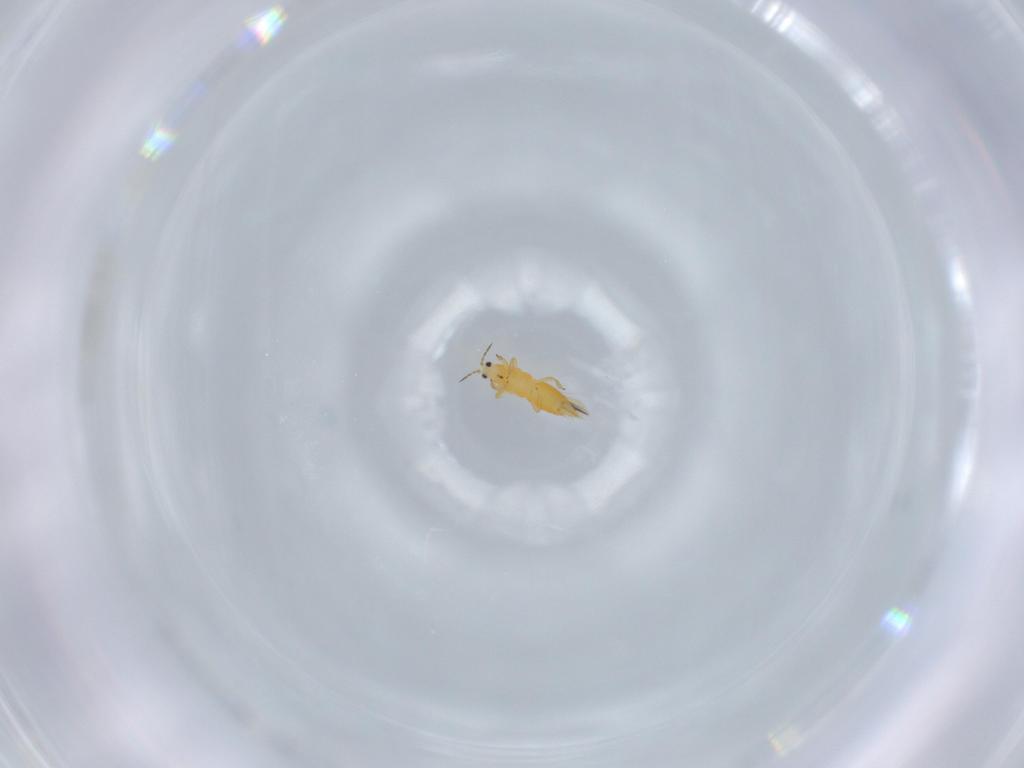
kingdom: Animalia
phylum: Arthropoda
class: Insecta
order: Thysanoptera
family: Thripidae
